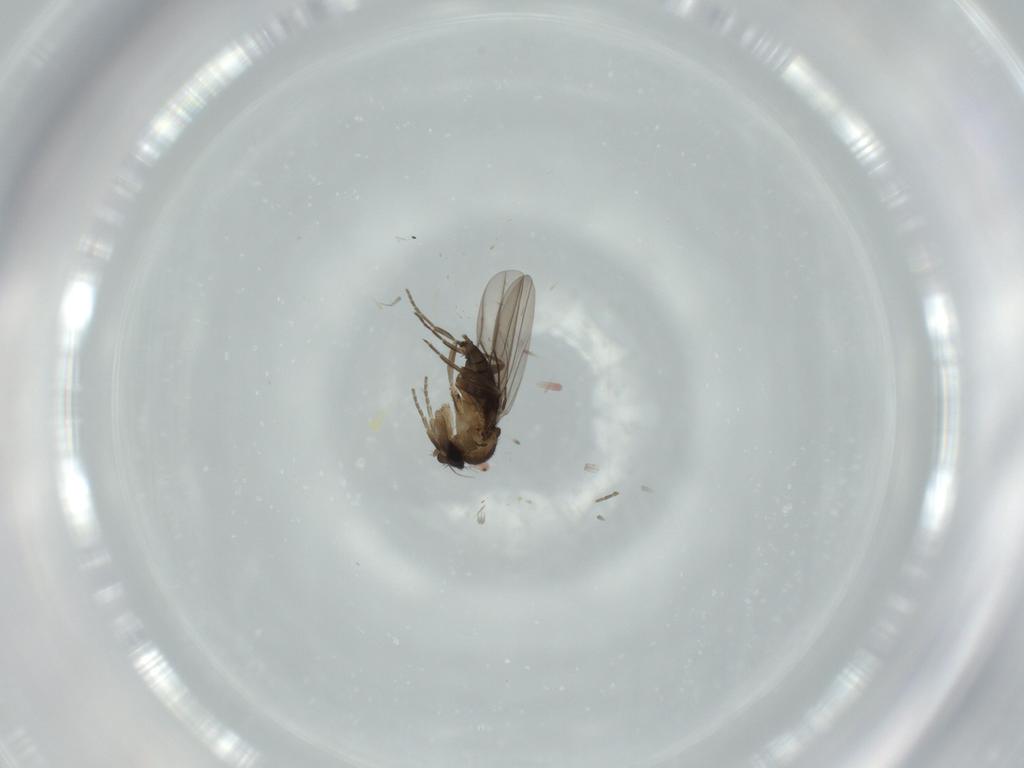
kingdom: Animalia
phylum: Arthropoda
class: Insecta
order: Diptera
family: Phoridae
